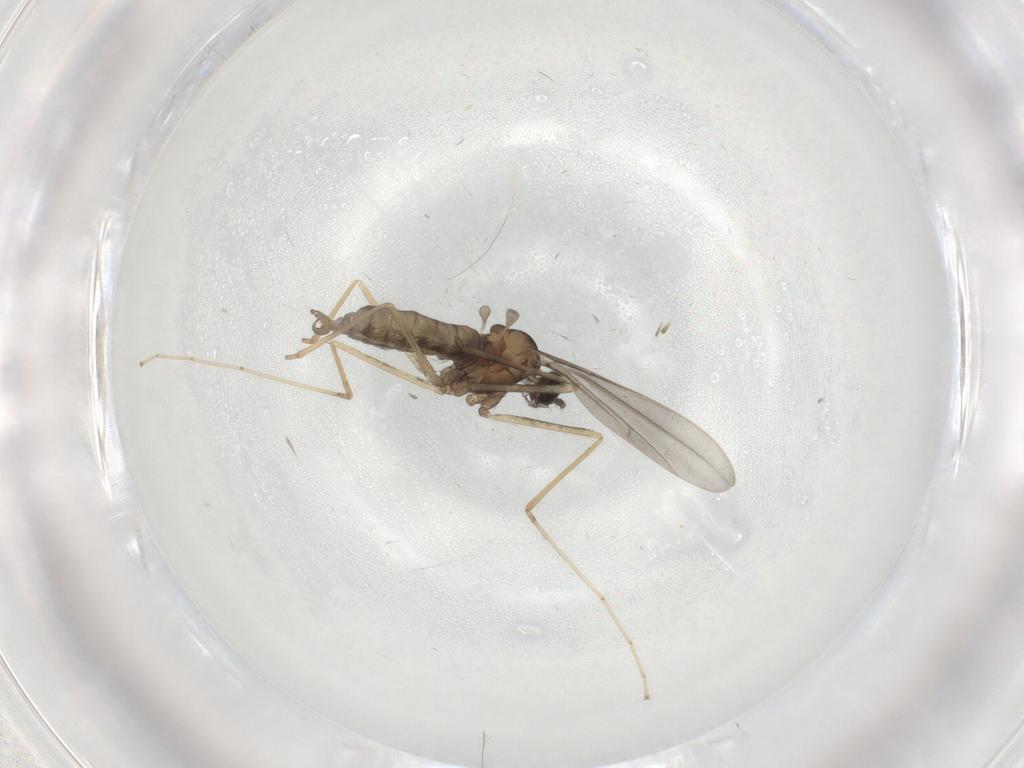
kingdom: Animalia
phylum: Arthropoda
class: Insecta
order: Diptera
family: Cecidomyiidae
